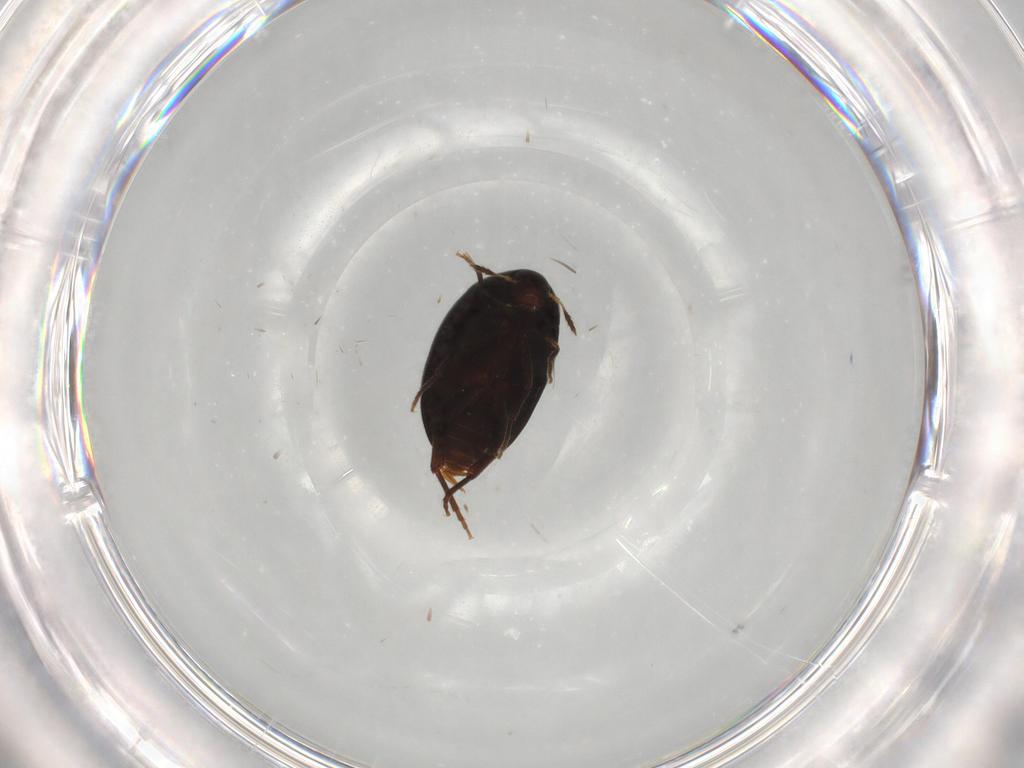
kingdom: Animalia
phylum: Arthropoda
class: Insecta
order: Coleoptera
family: Melandryidae
